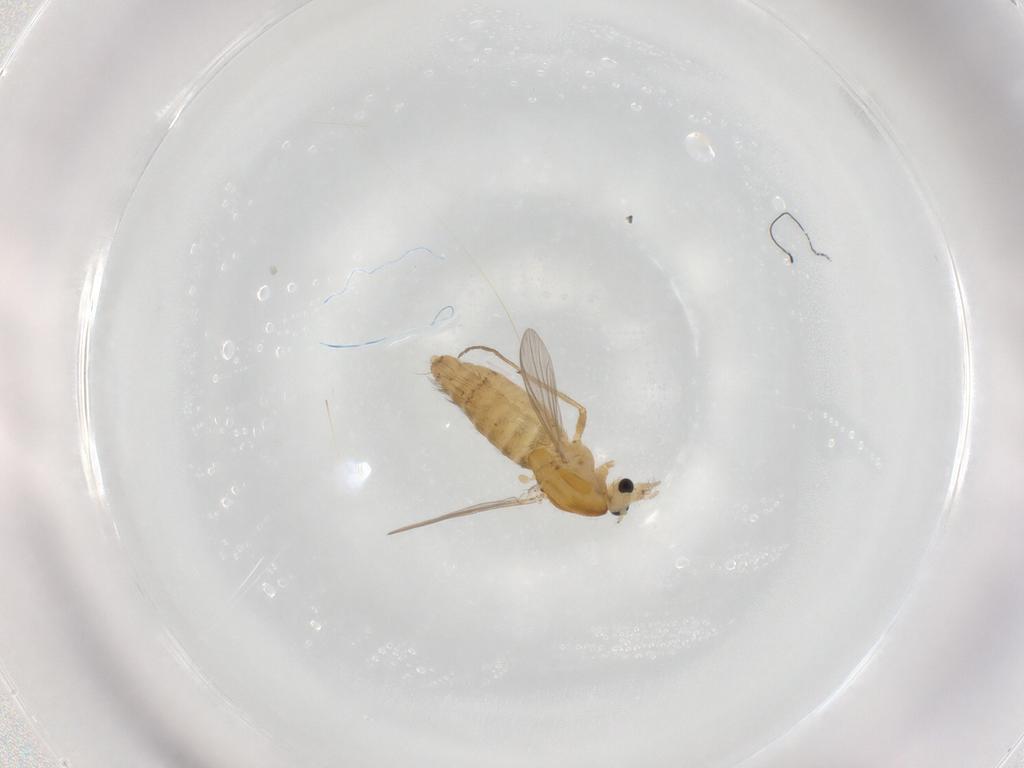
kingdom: Animalia
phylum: Arthropoda
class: Insecta
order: Diptera
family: Chironomidae
